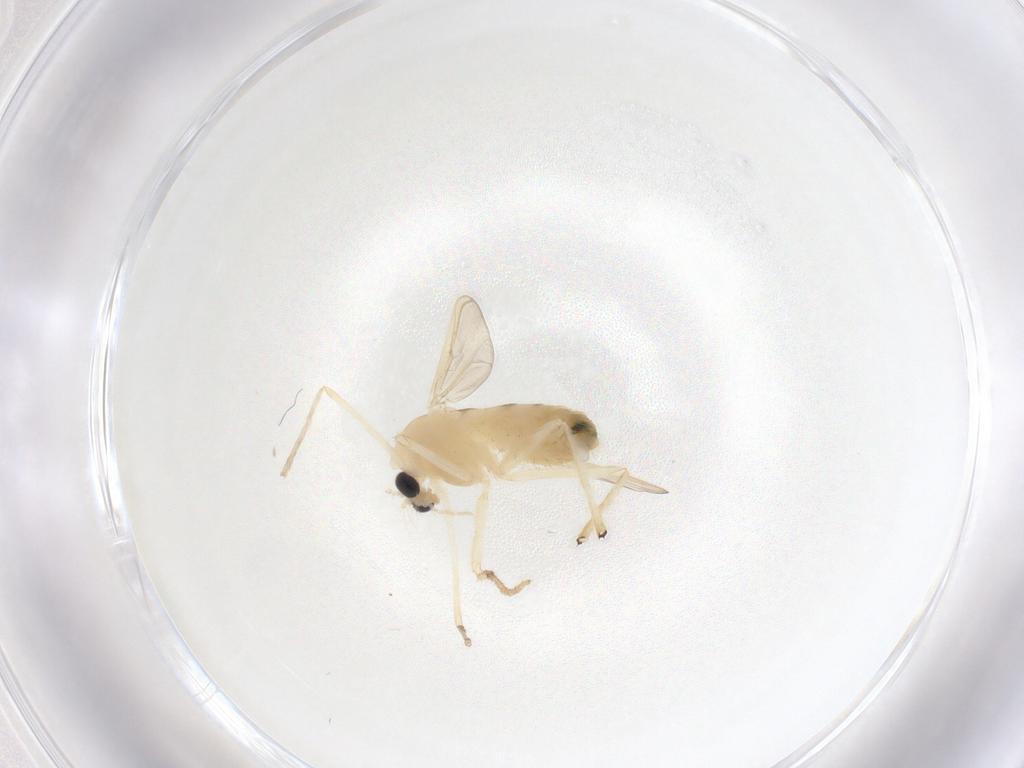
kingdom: Animalia
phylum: Arthropoda
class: Insecta
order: Diptera
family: Chironomidae
